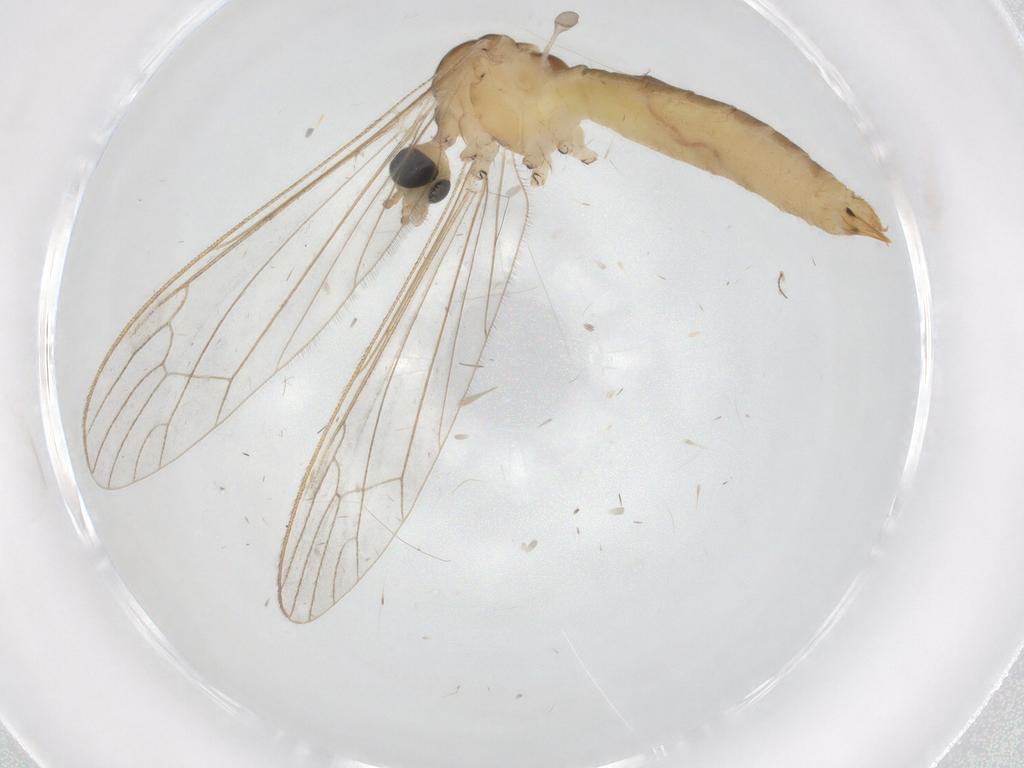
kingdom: Animalia
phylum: Arthropoda
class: Insecta
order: Diptera
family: Limoniidae
